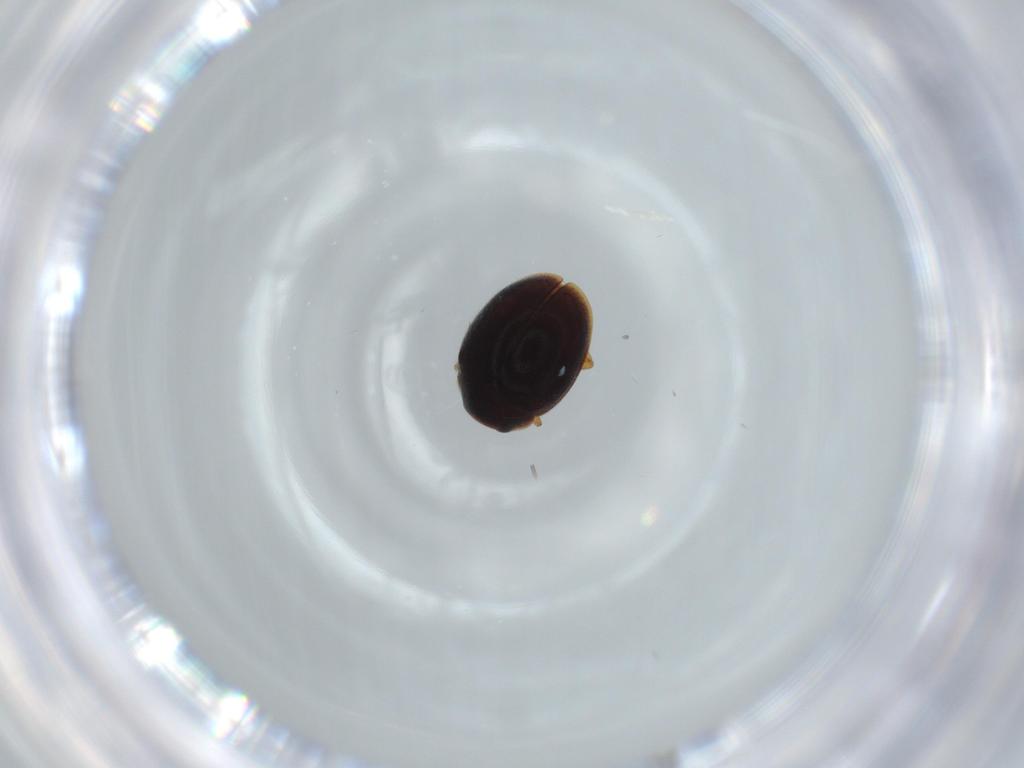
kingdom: Animalia
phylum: Arthropoda
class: Insecta
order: Coleoptera
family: Coccinellidae
